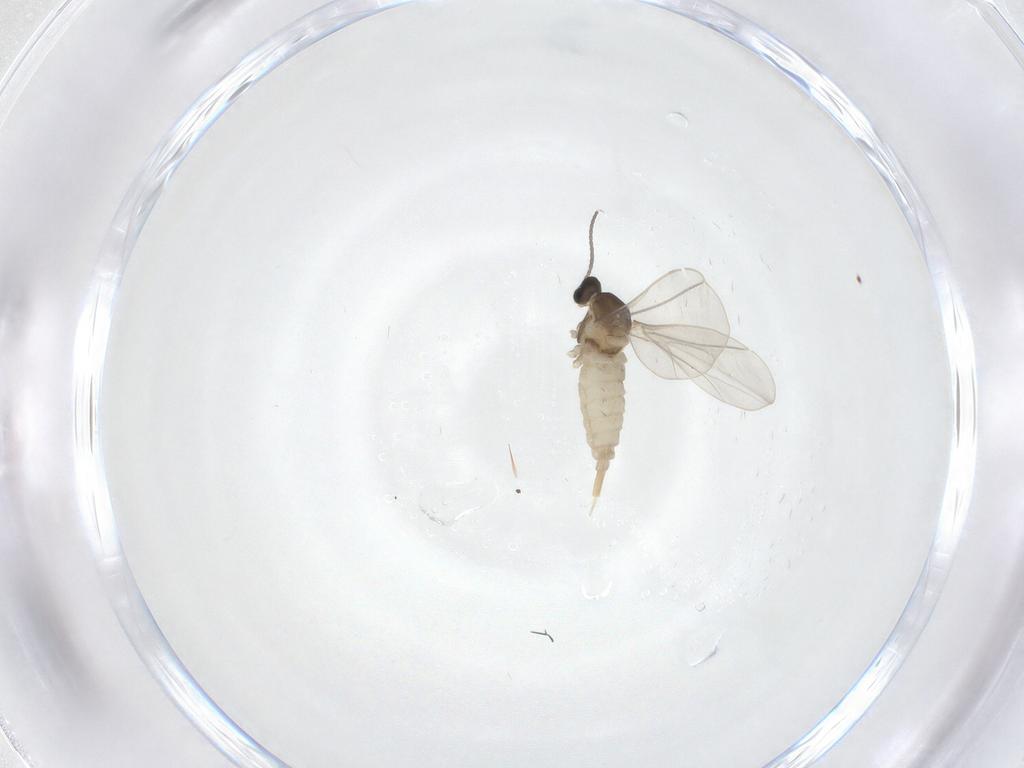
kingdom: Animalia
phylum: Arthropoda
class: Insecta
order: Diptera
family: Cecidomyiidae
